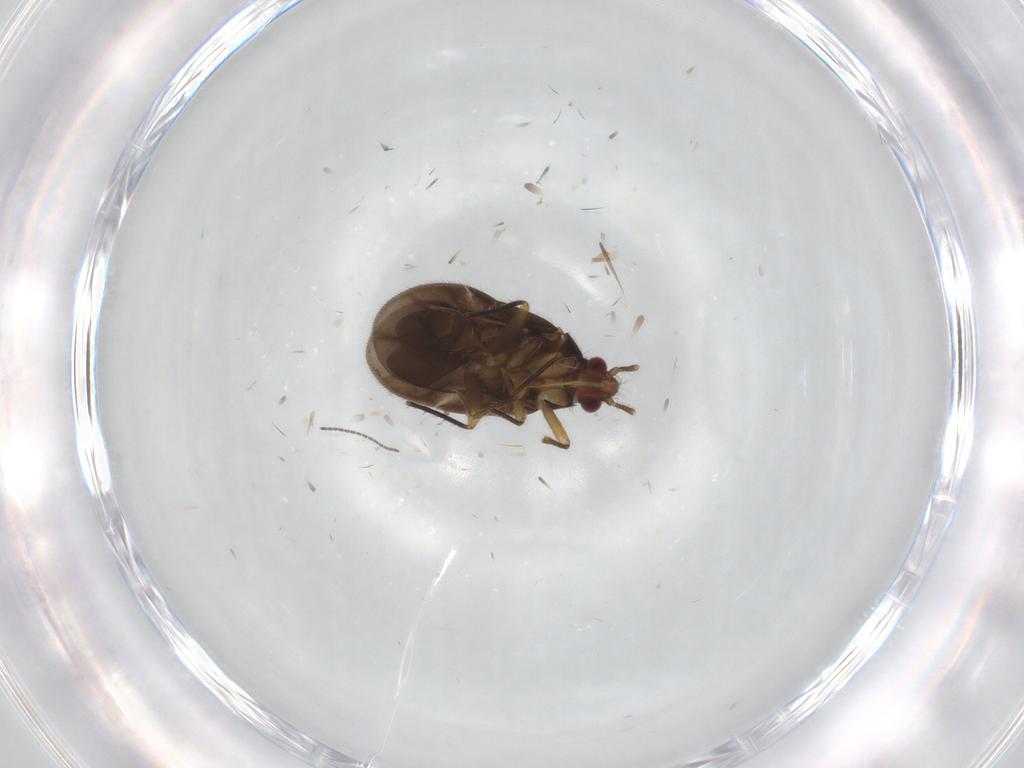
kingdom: Animalia
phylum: Arthropoda
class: Insecta
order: Hemiptera
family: Ceratocombidae
